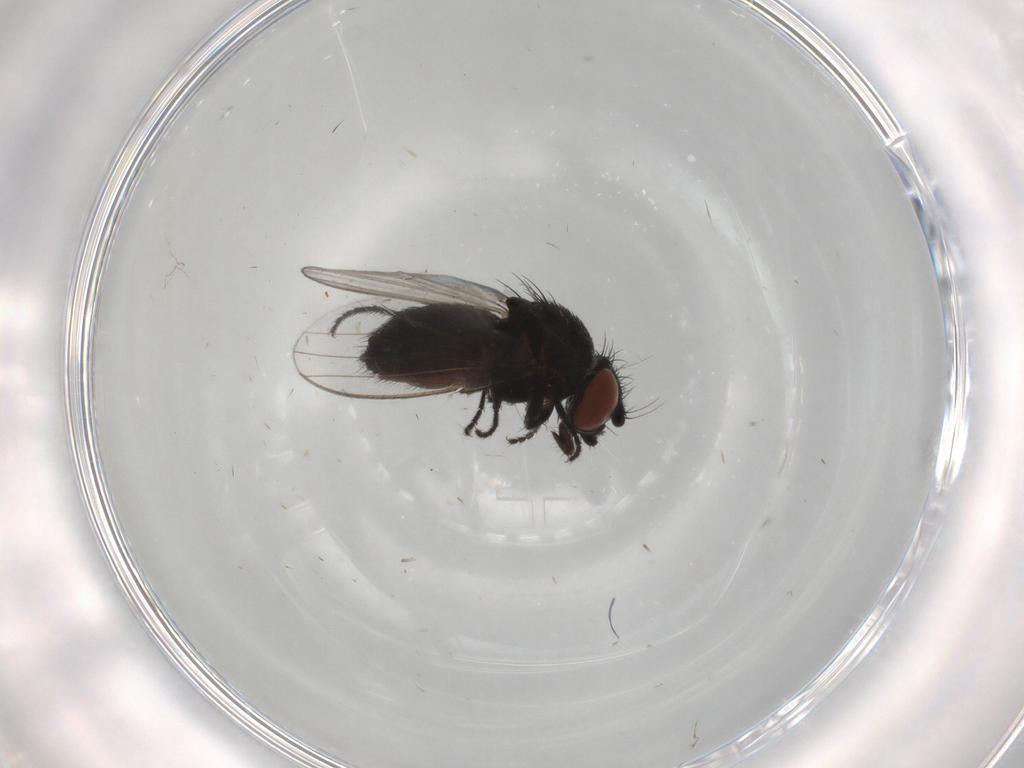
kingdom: Animalia
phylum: Arthropoda
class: Insecta
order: Diptera
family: Milichiidae
